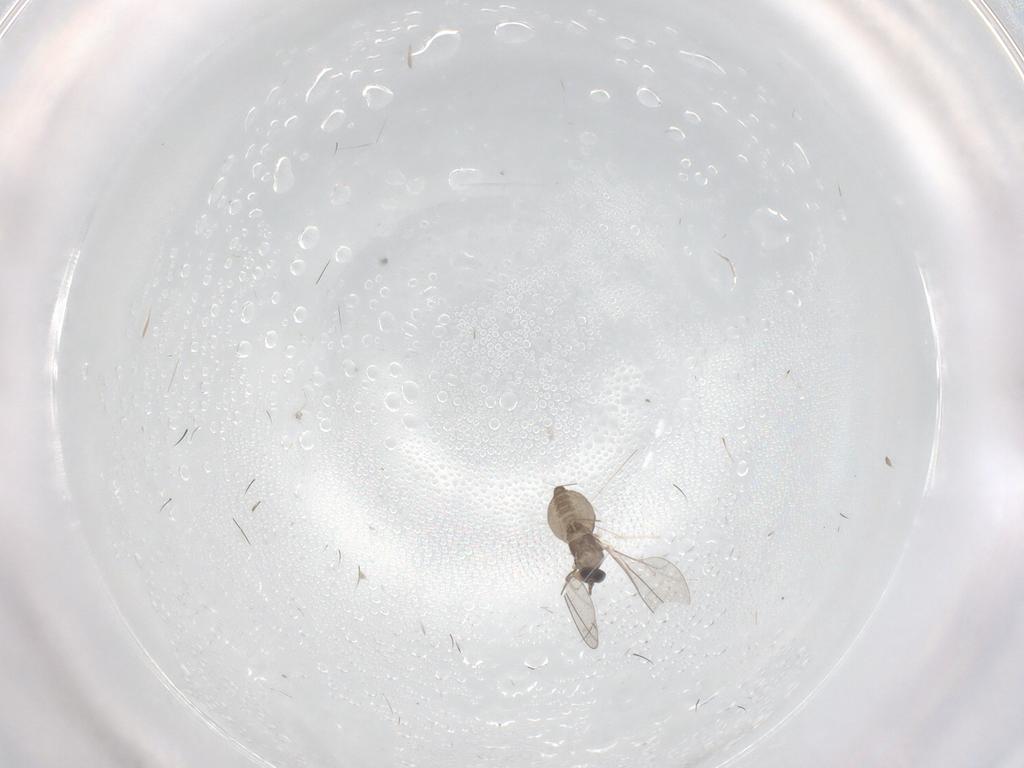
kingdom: Animalia
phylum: Arthropoda
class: Insecta
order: Diptera
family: Cecidomyiidae
